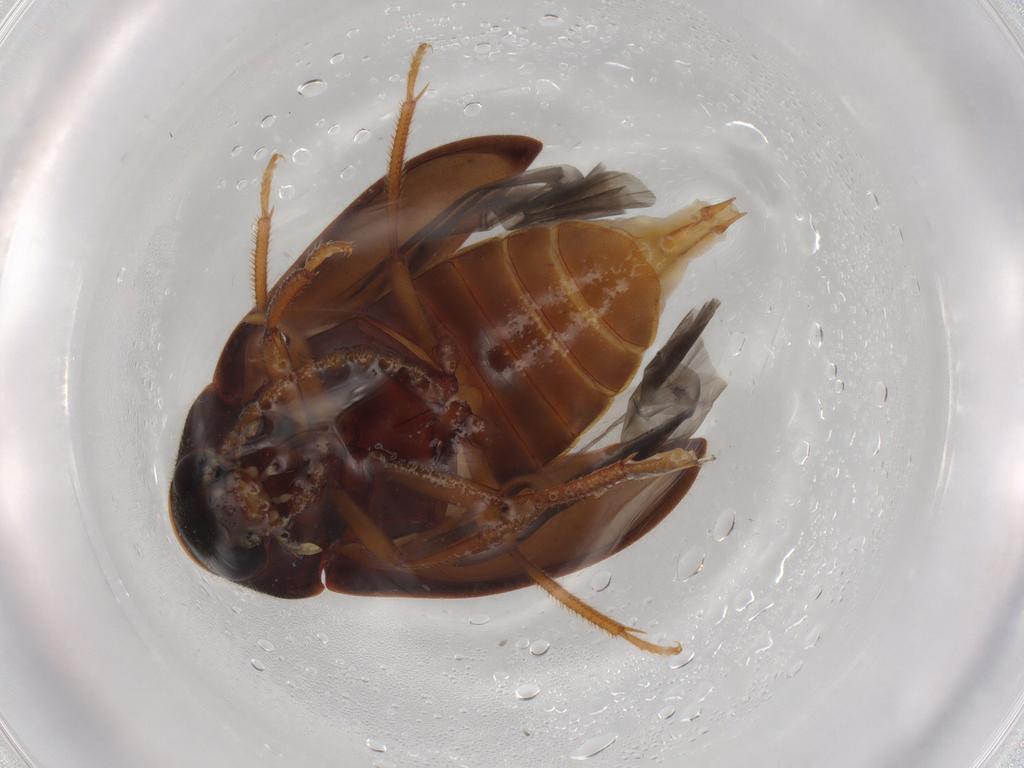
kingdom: Animalia
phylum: Arthropoda
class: Insecta
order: Coleoptera
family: Ptilodactylidae
